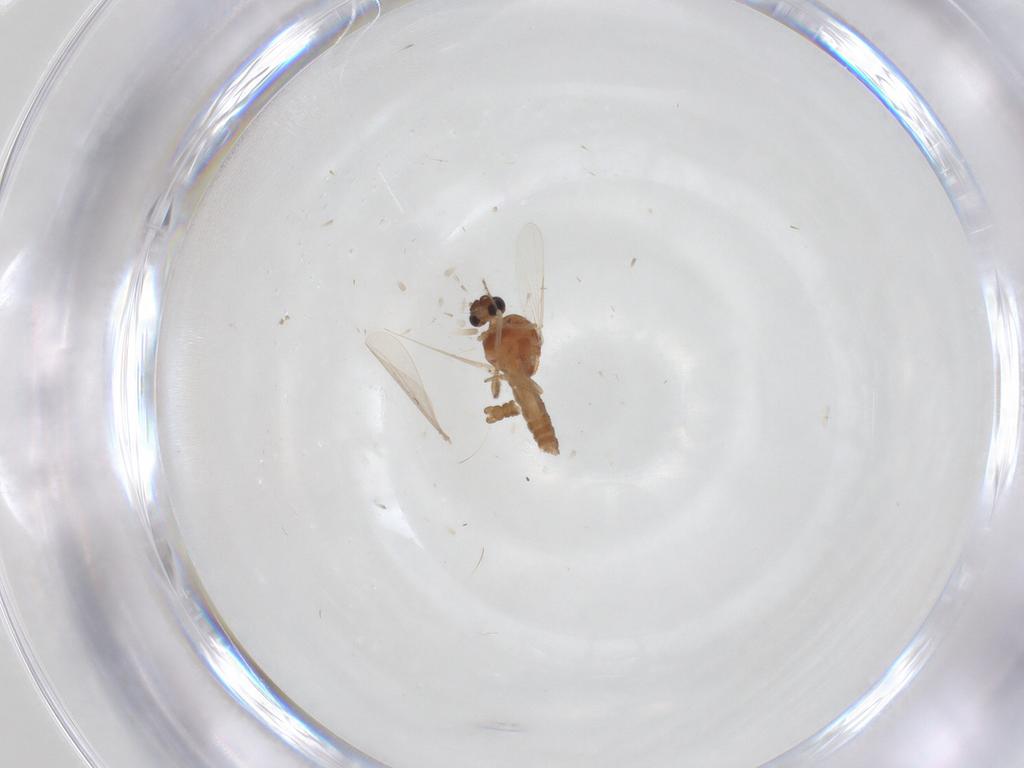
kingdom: Animalia
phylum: Arthropoda
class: Insecta
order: Diptera
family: Ceratopogonidae
